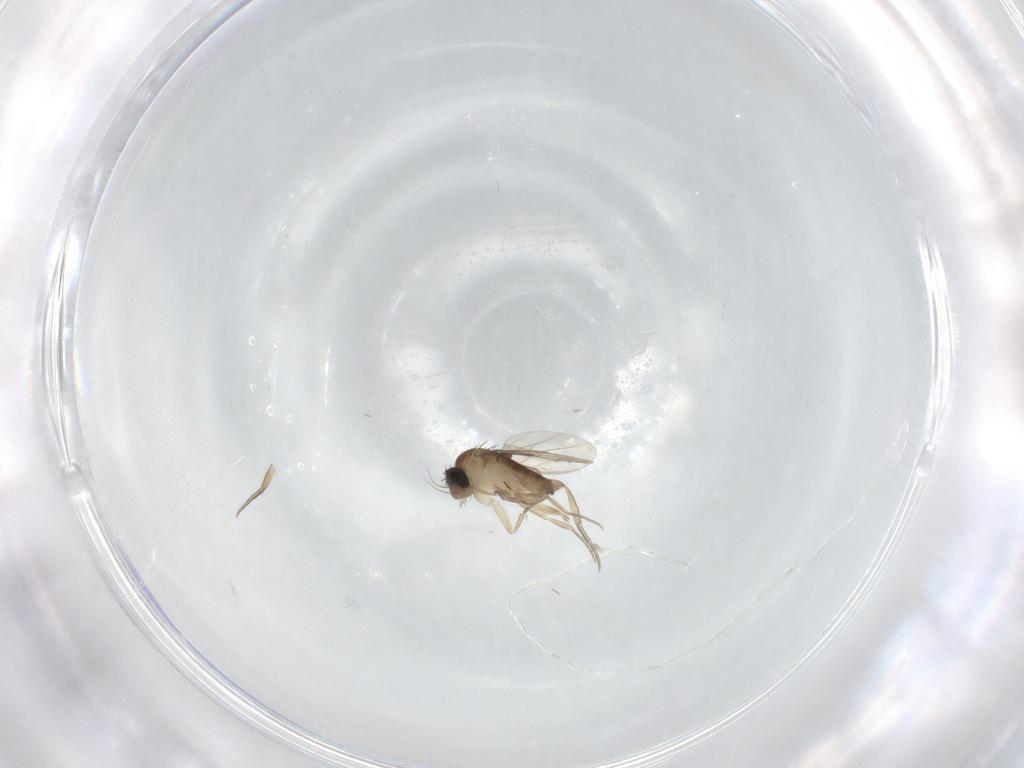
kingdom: Animalia
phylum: Arthropoda
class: Insecta
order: Diptera
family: Phoridae
